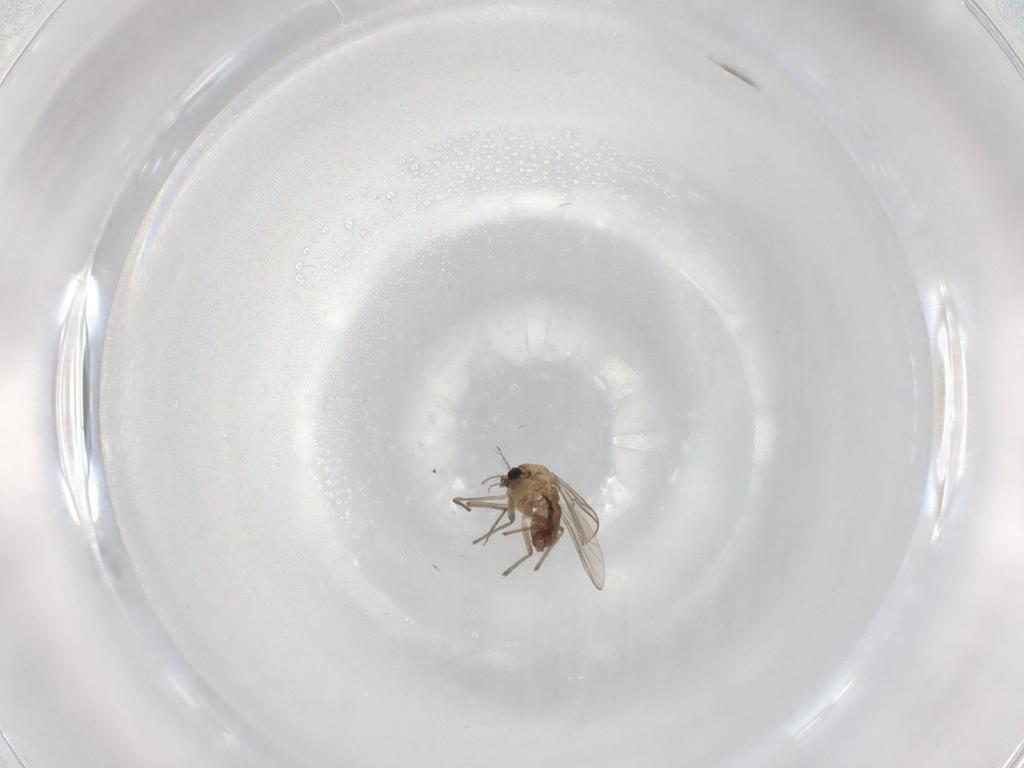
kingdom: Animalia
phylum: Arthropoda
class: Insecta
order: Diptera
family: Chironomidae
